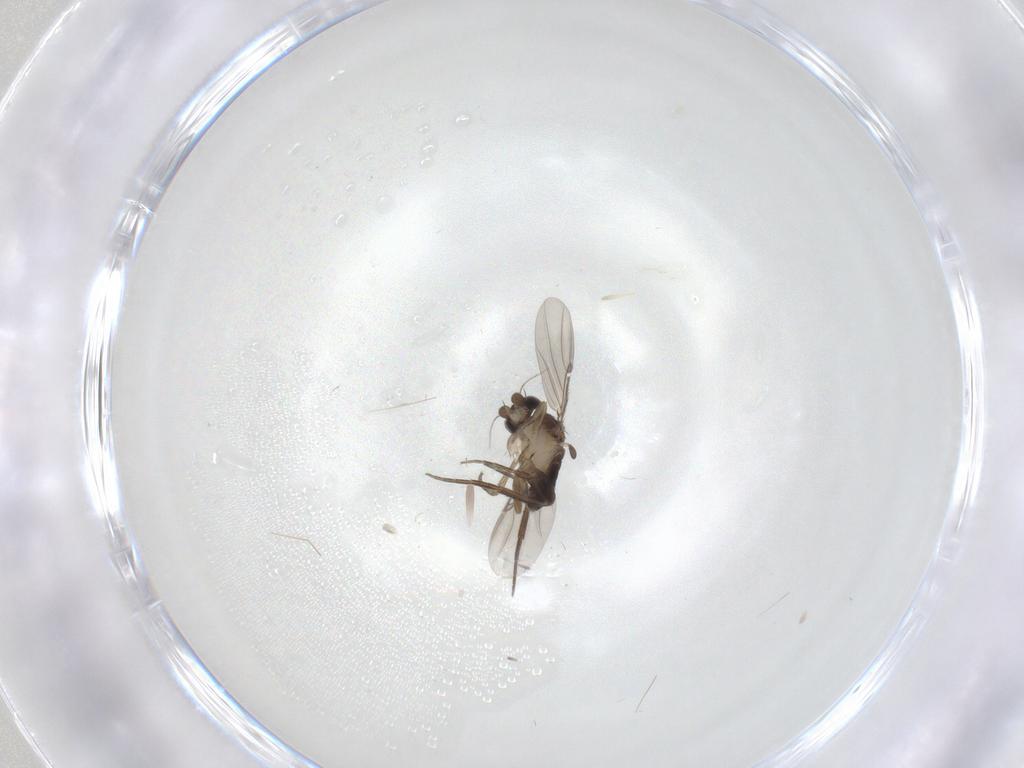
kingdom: Animalia
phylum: Arthropoda
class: Insecta
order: Diptera
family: Phoridae
